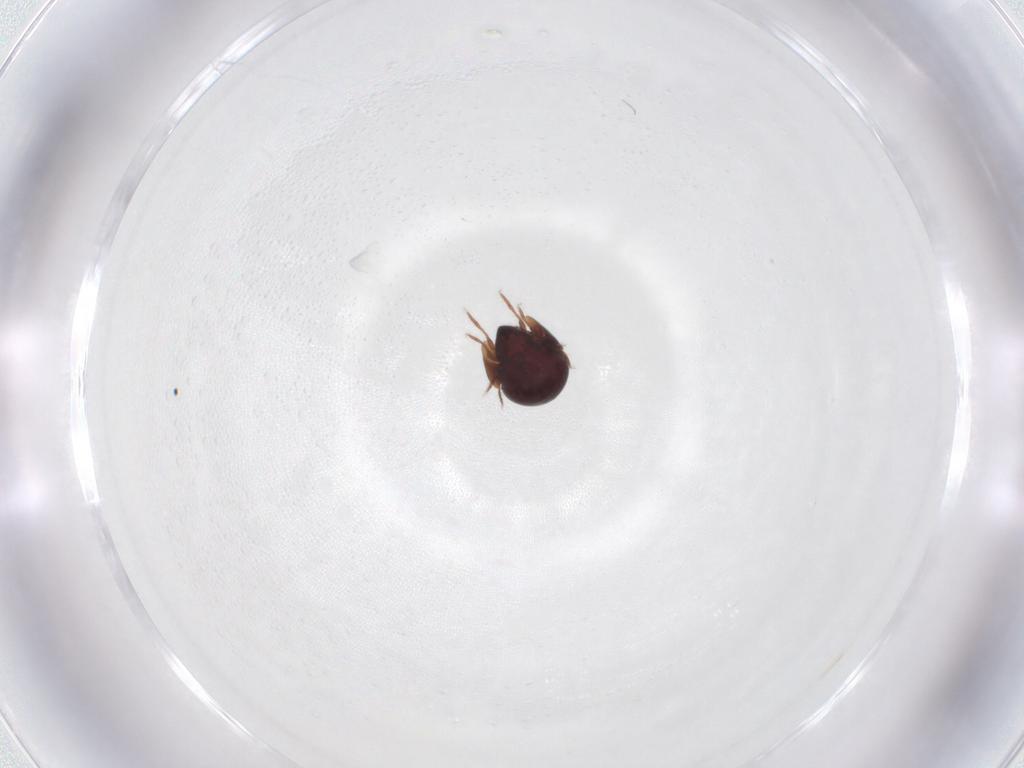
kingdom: Animalia
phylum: Arthropoda
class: Arachnida
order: Sarcoptiformes
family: Galumnidae
